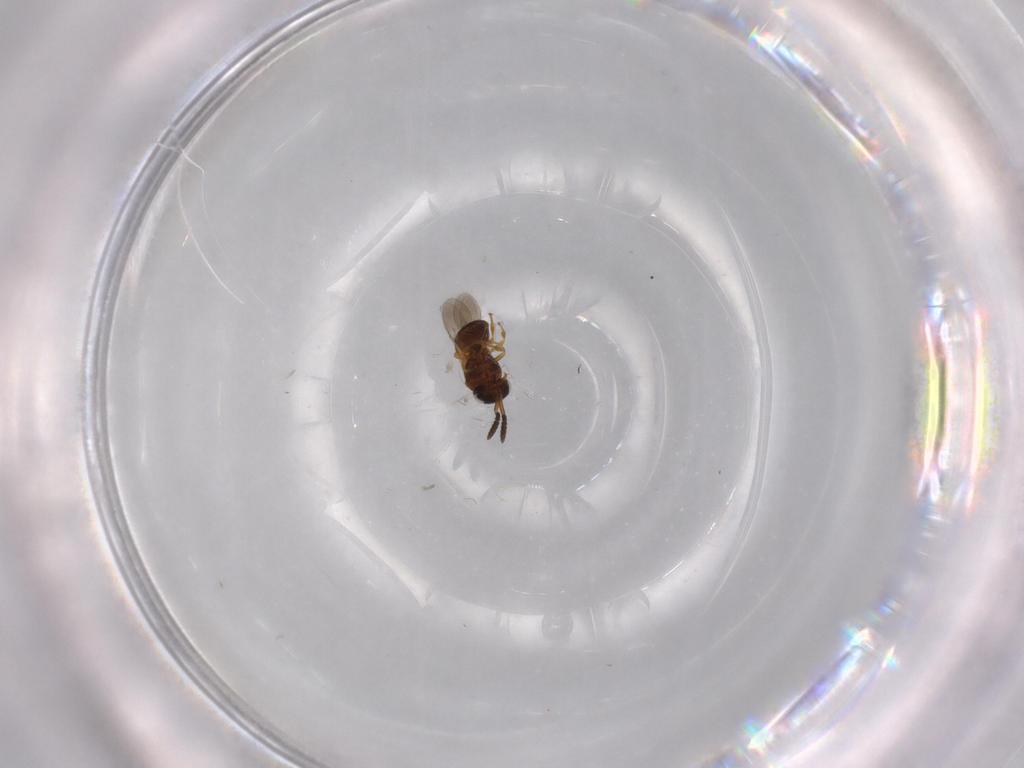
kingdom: Animalia
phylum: Arthropoda
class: Insecta
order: Hymenoptera
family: Scelionidae
